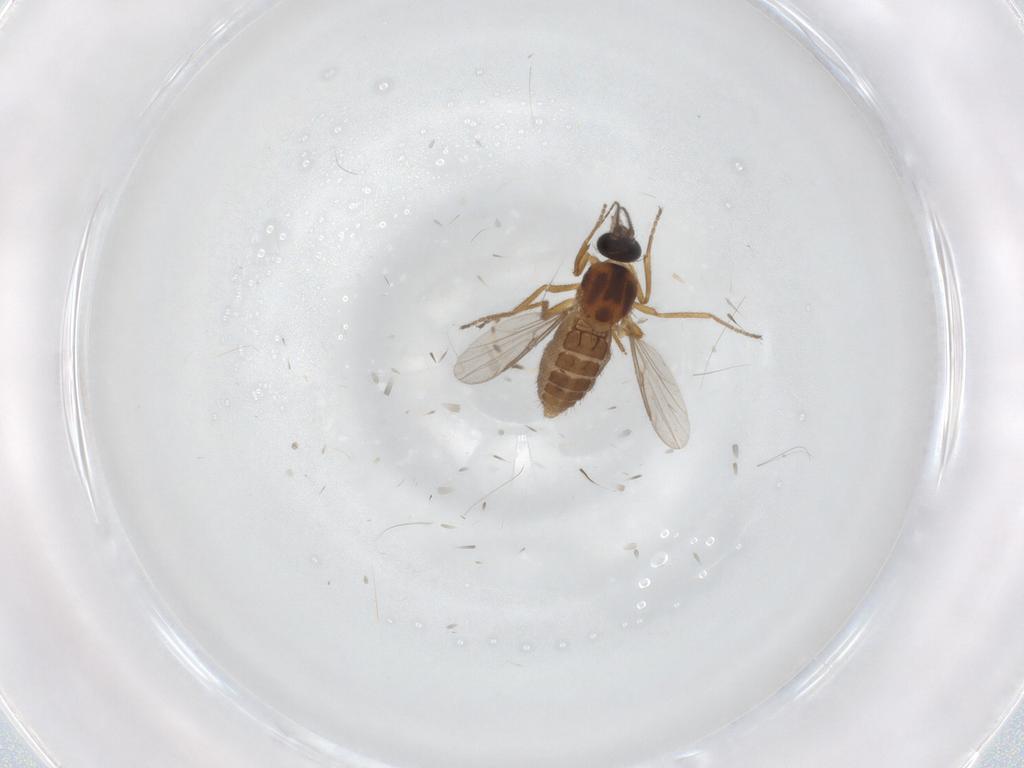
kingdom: Animalia
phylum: Arthropoda
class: Insecta
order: Diptera
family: Ceratopogonidae
